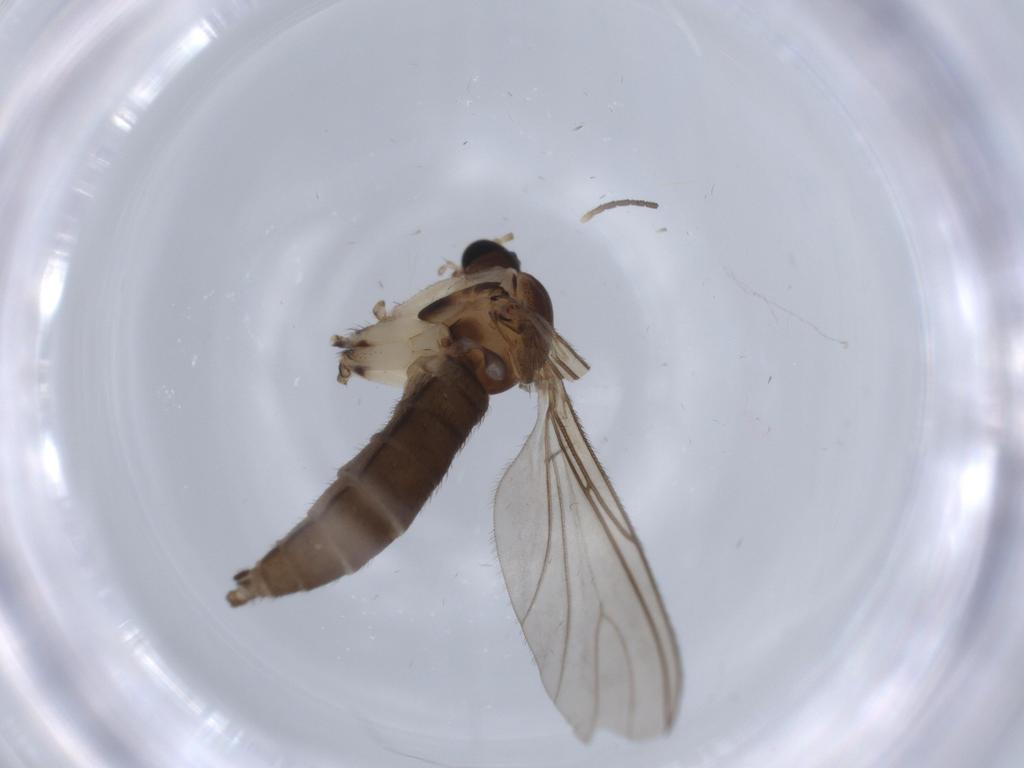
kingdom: Animalia
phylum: Arthropoda
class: Insecta
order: Diptera
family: Sciaridae
